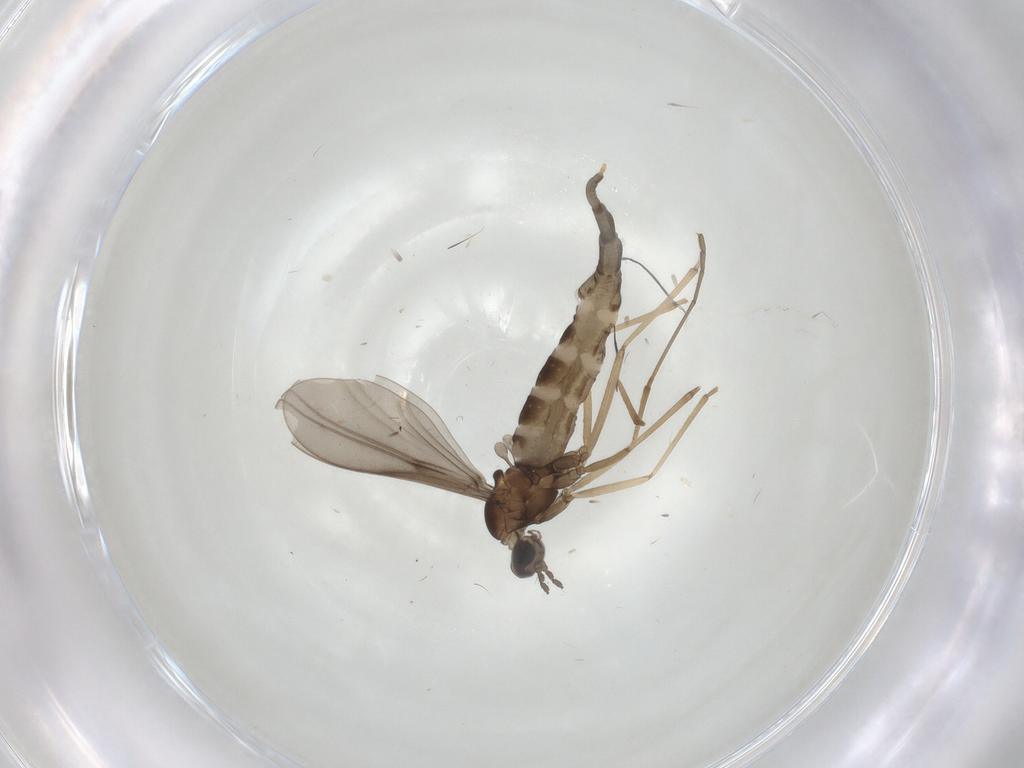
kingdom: Animalia
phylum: Arthropoda
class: Insecta
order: Diptera
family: Cecidomyiidae
